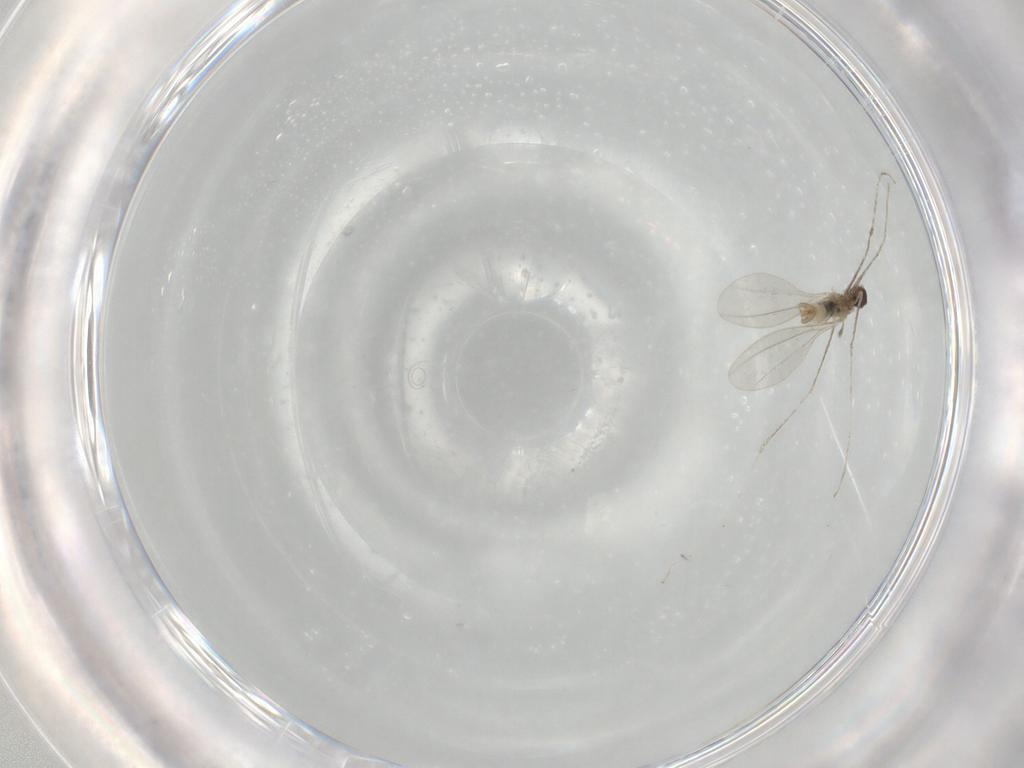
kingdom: Animalia
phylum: Arthropoda
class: Insecta
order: Diptera
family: Cecidomyiidae
